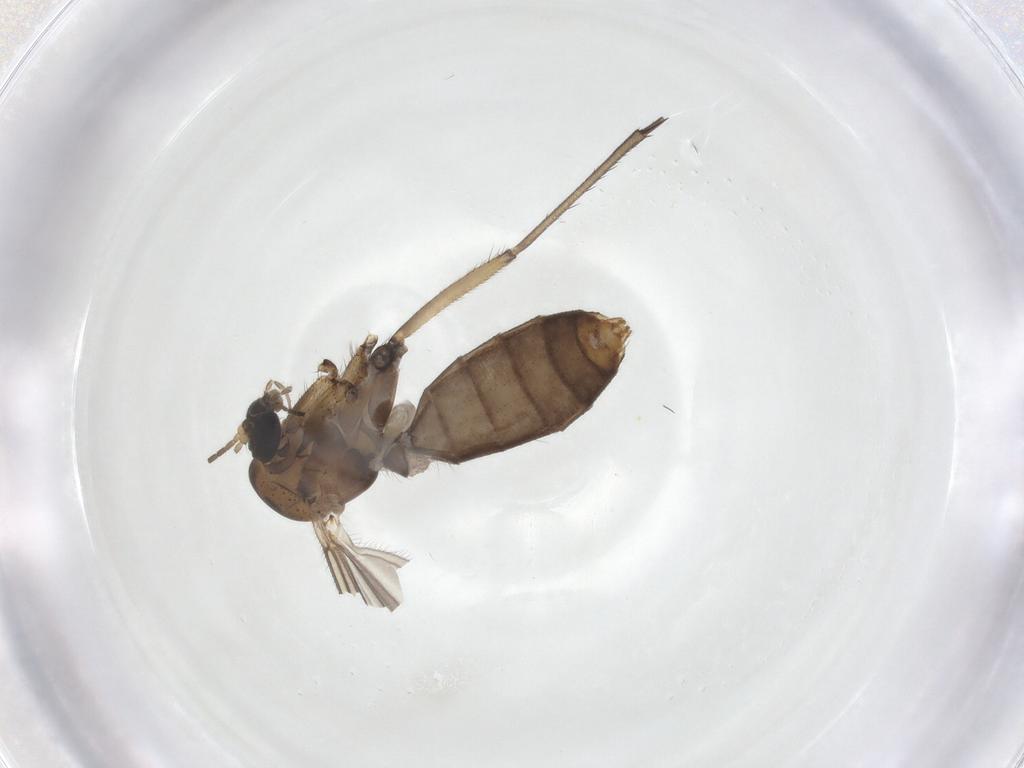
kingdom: Animalia
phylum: Arthropoda
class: Insecta
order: Diptera
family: Mycetophilidae
